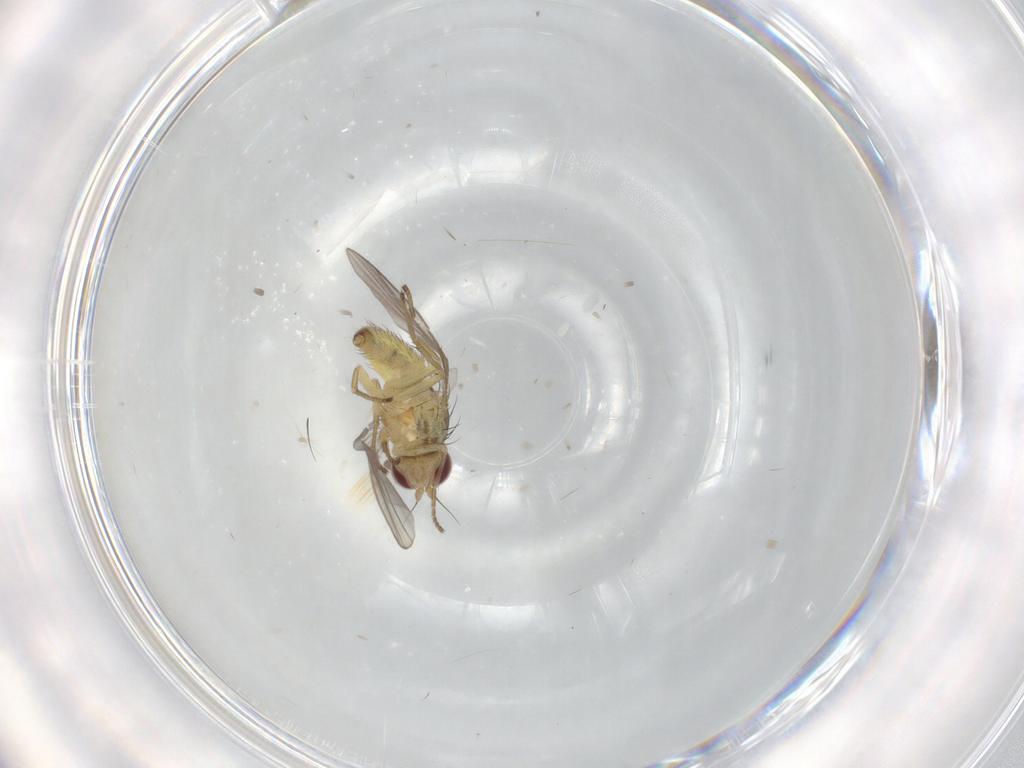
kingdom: Animalia
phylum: Arthropoda
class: Insecta
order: Diptera
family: Agromyzidae
